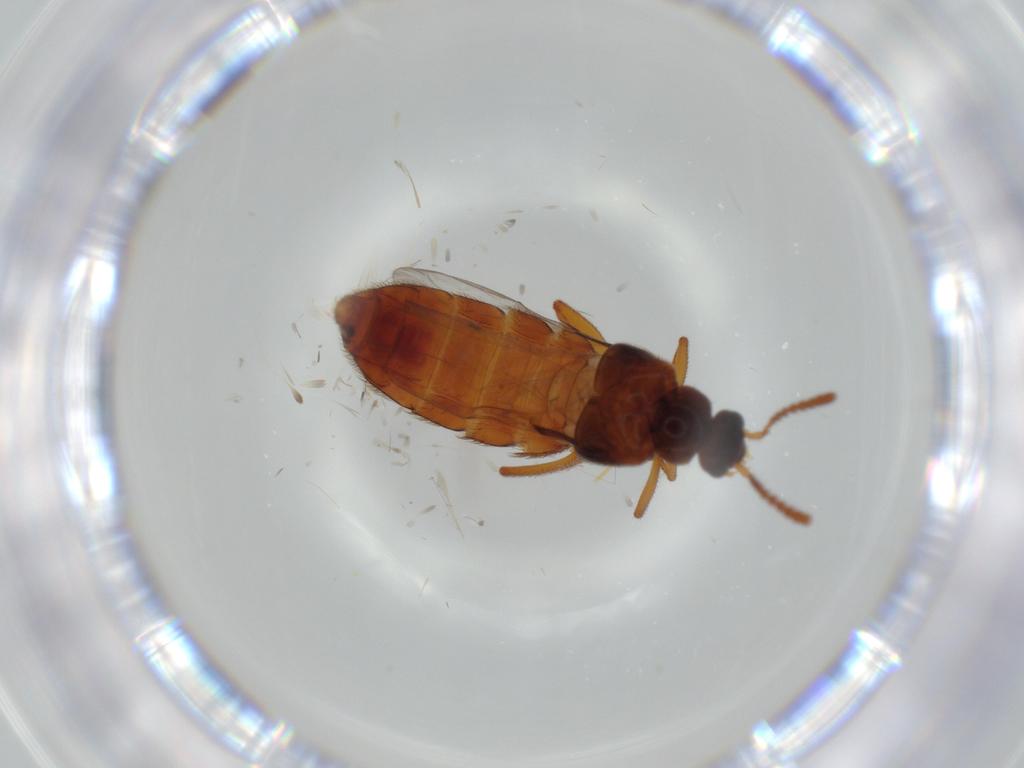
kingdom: Animalia
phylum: Arthropoda
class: Insecta
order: Coleoptera
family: Staphylinidae
